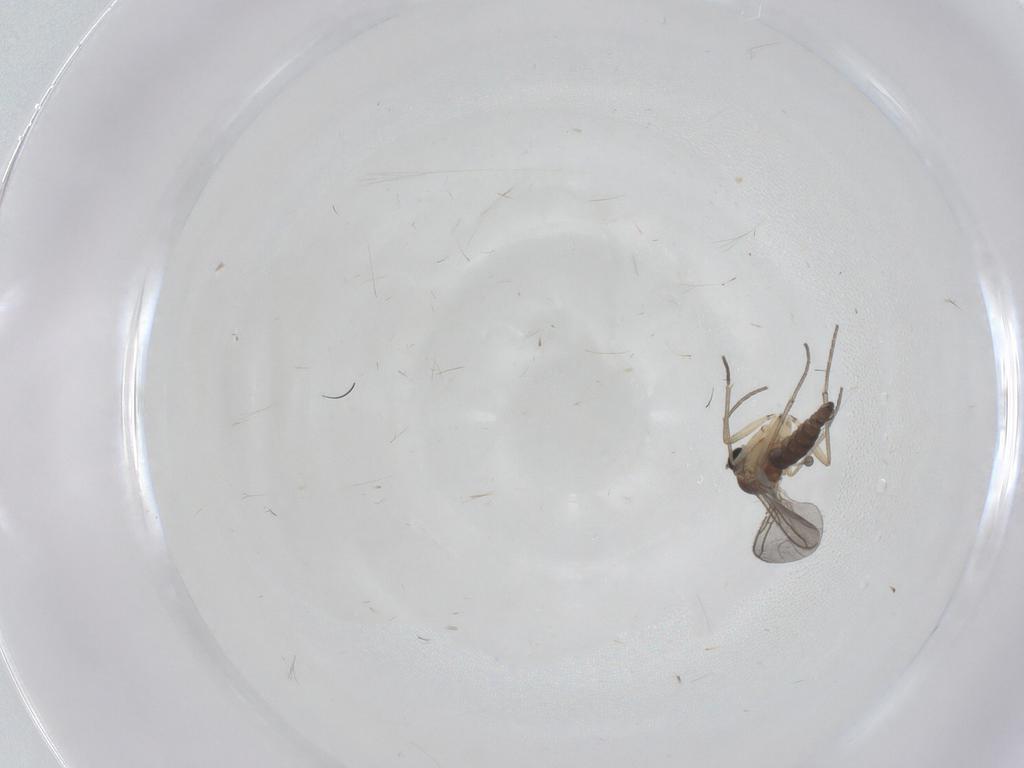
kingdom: Animalia
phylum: Arthropoda
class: Insecta
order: Diptera
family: Sciaridae
